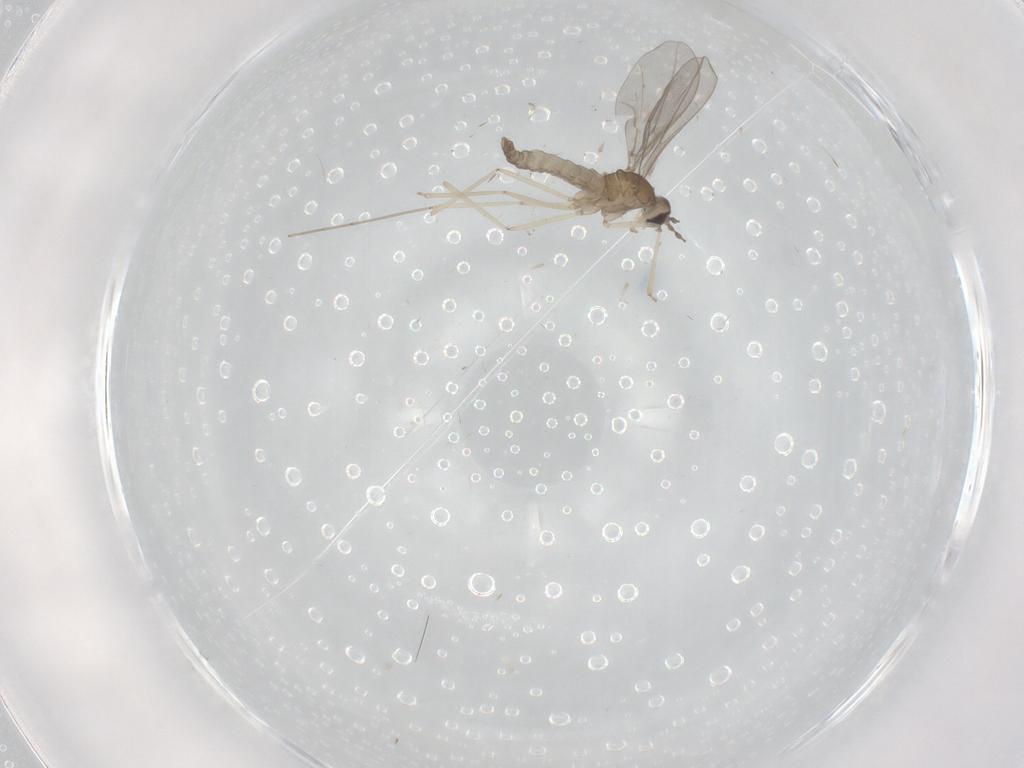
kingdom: Animalia
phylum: Arthropoda
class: Insecta
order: Diptera
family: Cecidomyiidae
